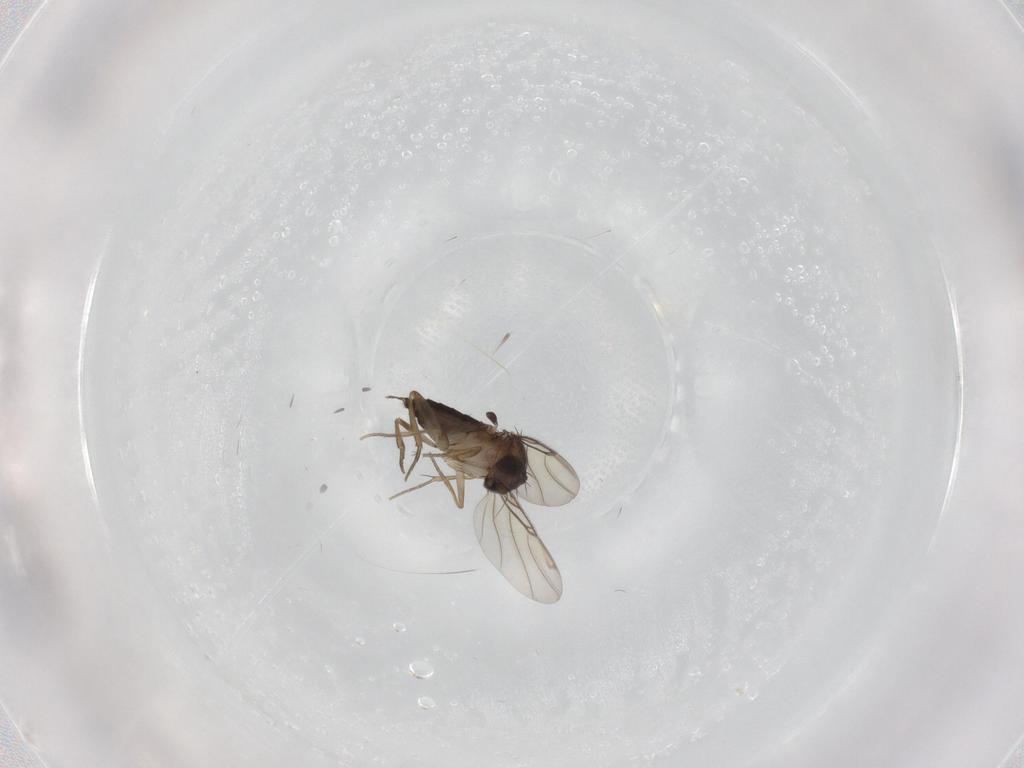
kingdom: Animalia
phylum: Arthropoda
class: Insecta
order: Diptera
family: Phoridae
